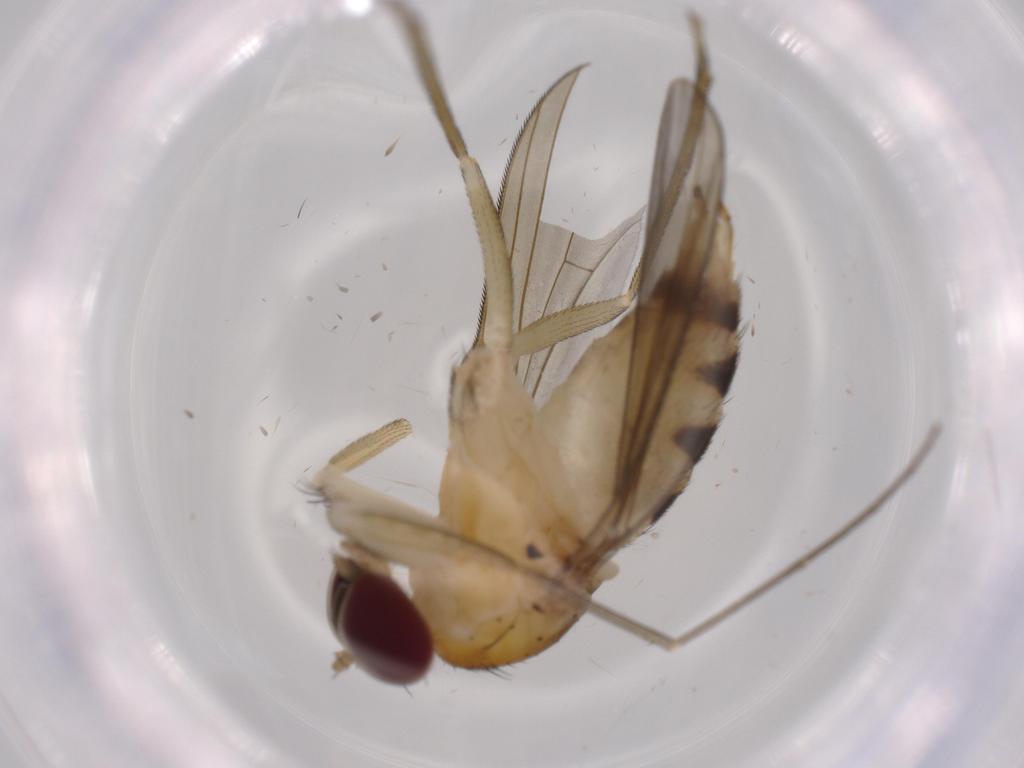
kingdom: Animalia
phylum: Arthropoda
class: Insecta
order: Diptera
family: Dolichopodidae
